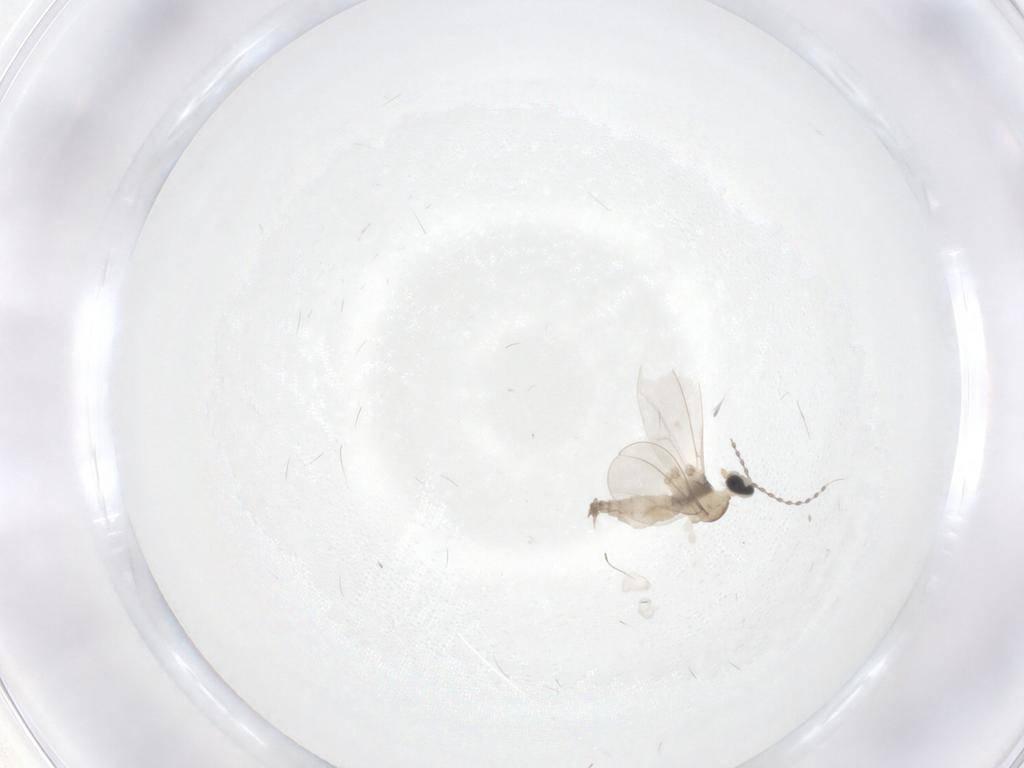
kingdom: Animalia
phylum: Arthropoda
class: Insecta
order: Diptera
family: Cecidomyiidae
